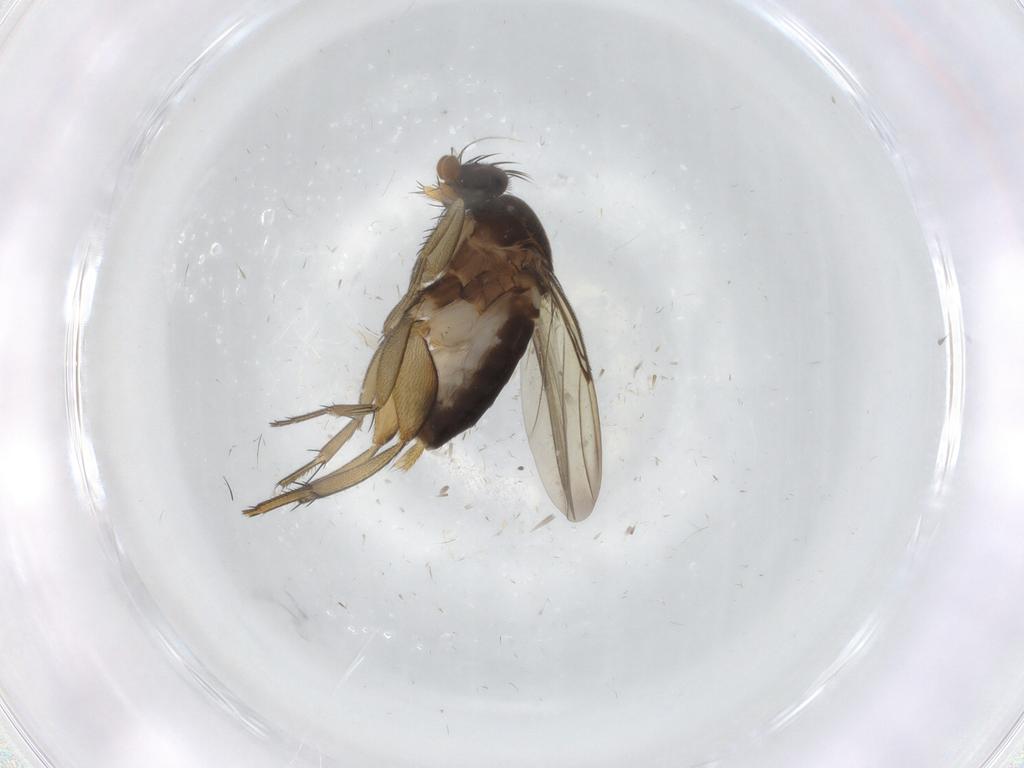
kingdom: Animalia
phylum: Arthropoda
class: Insecta
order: Diptera
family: Phoridae
